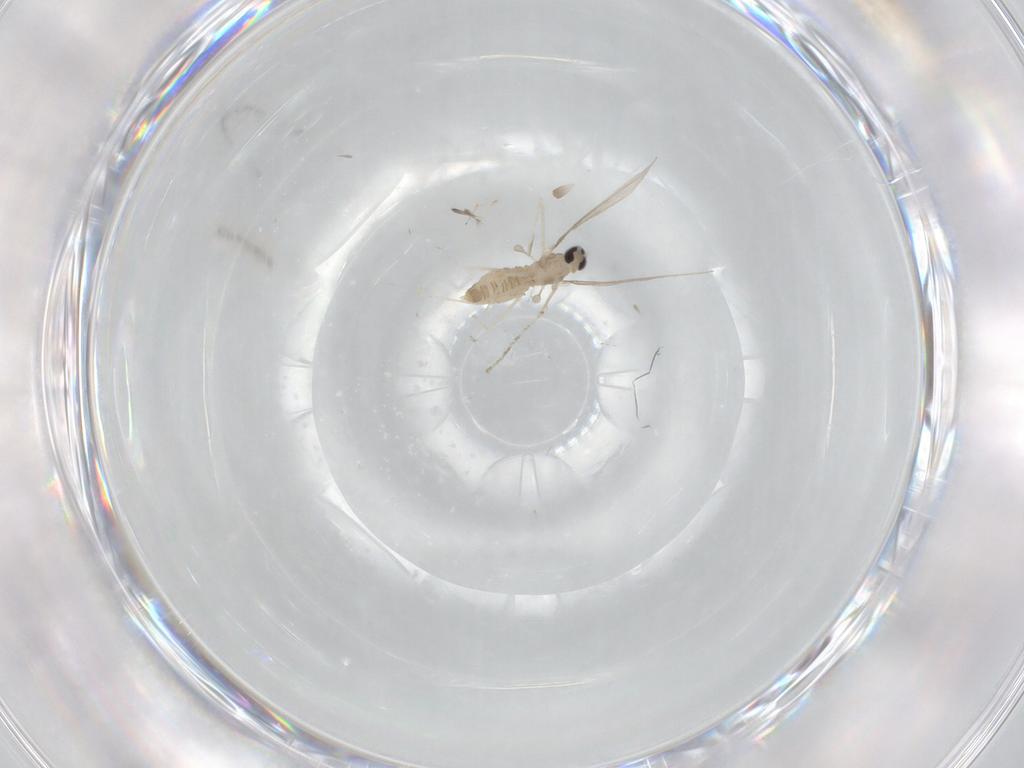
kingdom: Animalia
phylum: Arthropoda
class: Insecta
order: Diptera
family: Cecidomyiidae
